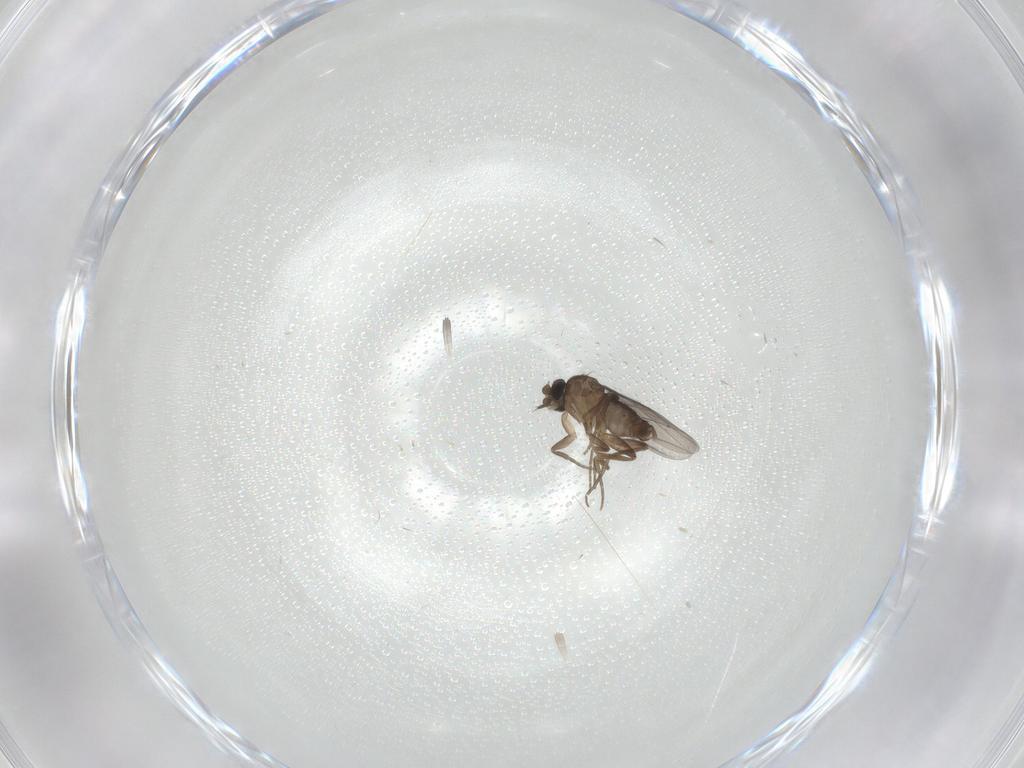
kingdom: Animalia
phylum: Arthropoda
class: Insecta
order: Diptera
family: Phoridae
